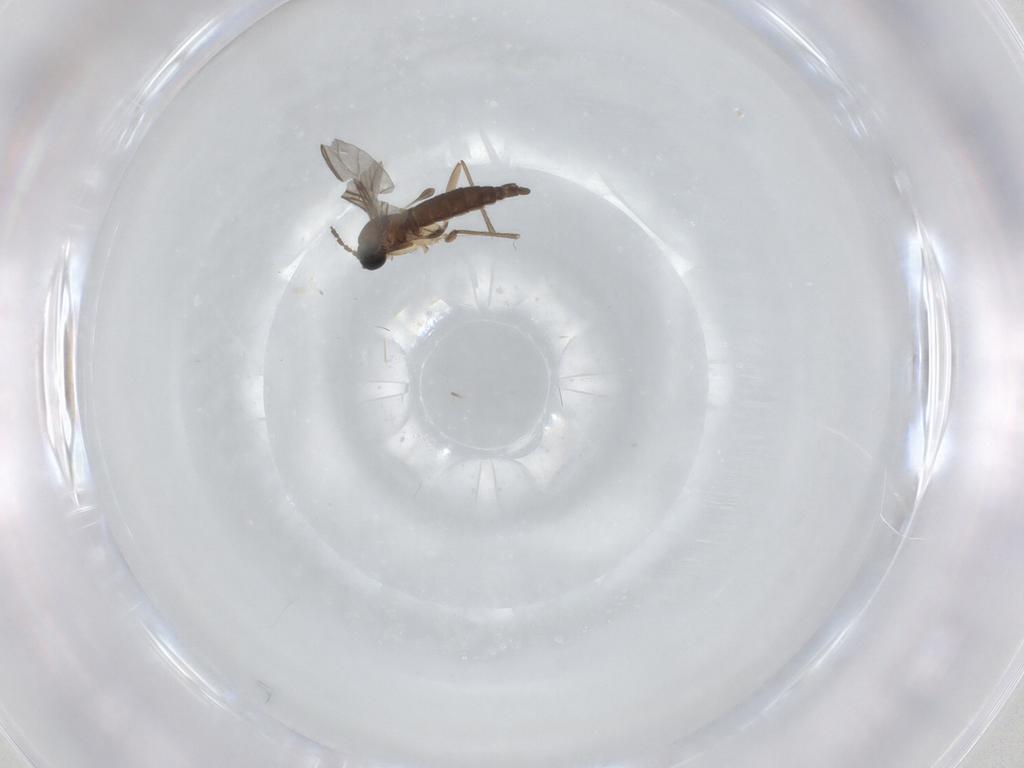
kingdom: Animalia
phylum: Arthropoda
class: Insecta
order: Diptera
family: Sciaridae
